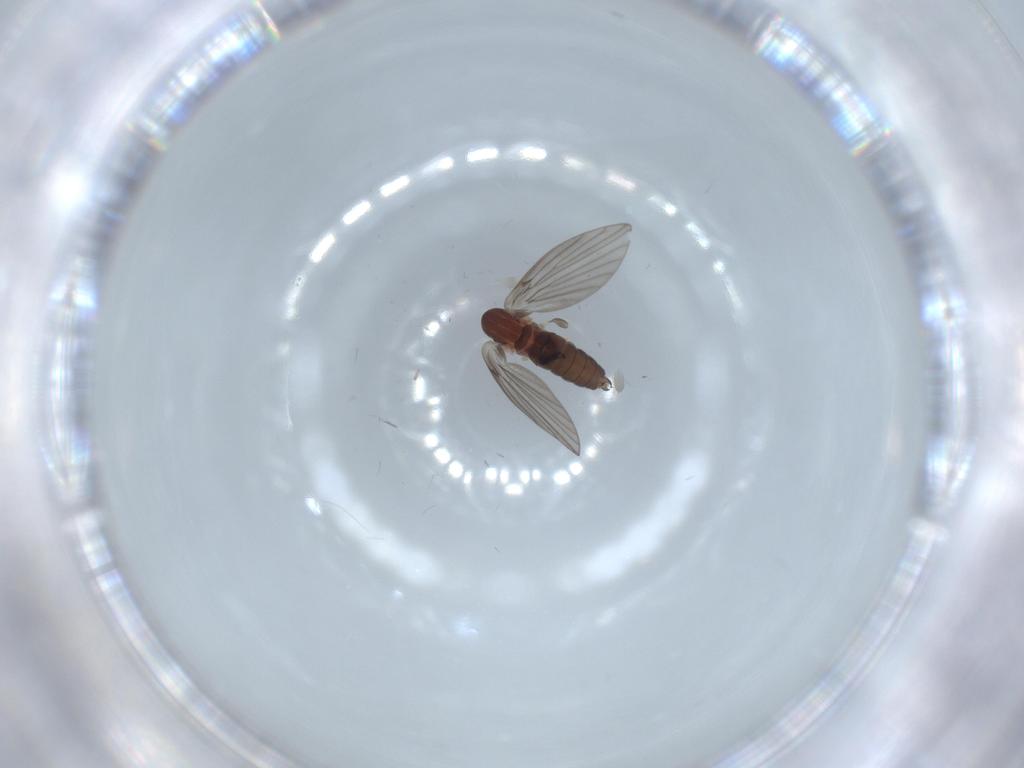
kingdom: Animalia
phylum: Arthropoda
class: Insecta
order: Diptera
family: Psychodidae
